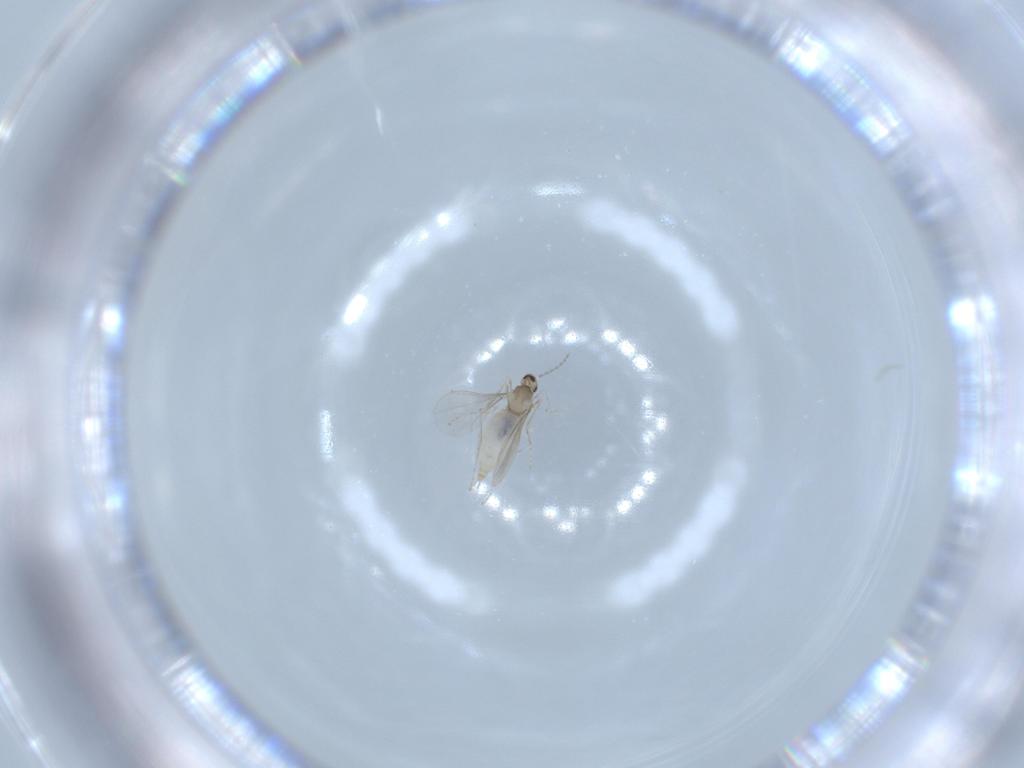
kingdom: Animalia
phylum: Arthropoda
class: Insecta
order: Diptera
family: Cecidomyiidae
